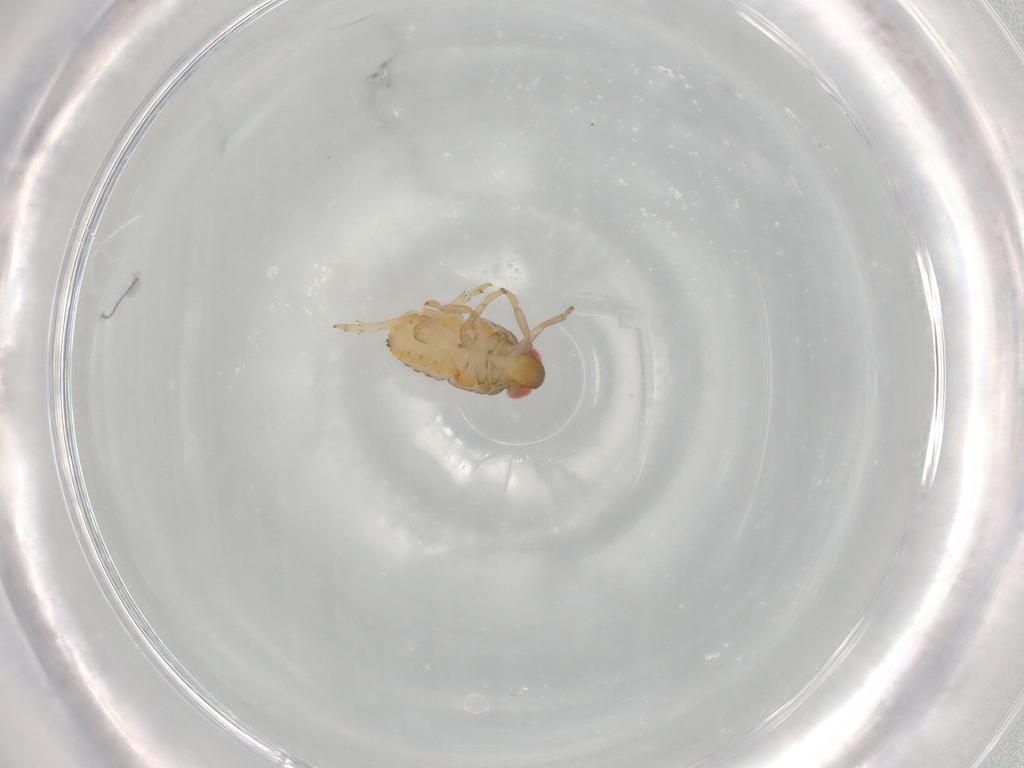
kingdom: Animalia
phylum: Arthropoda
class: Insecta
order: Hemiptera
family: Issidae
